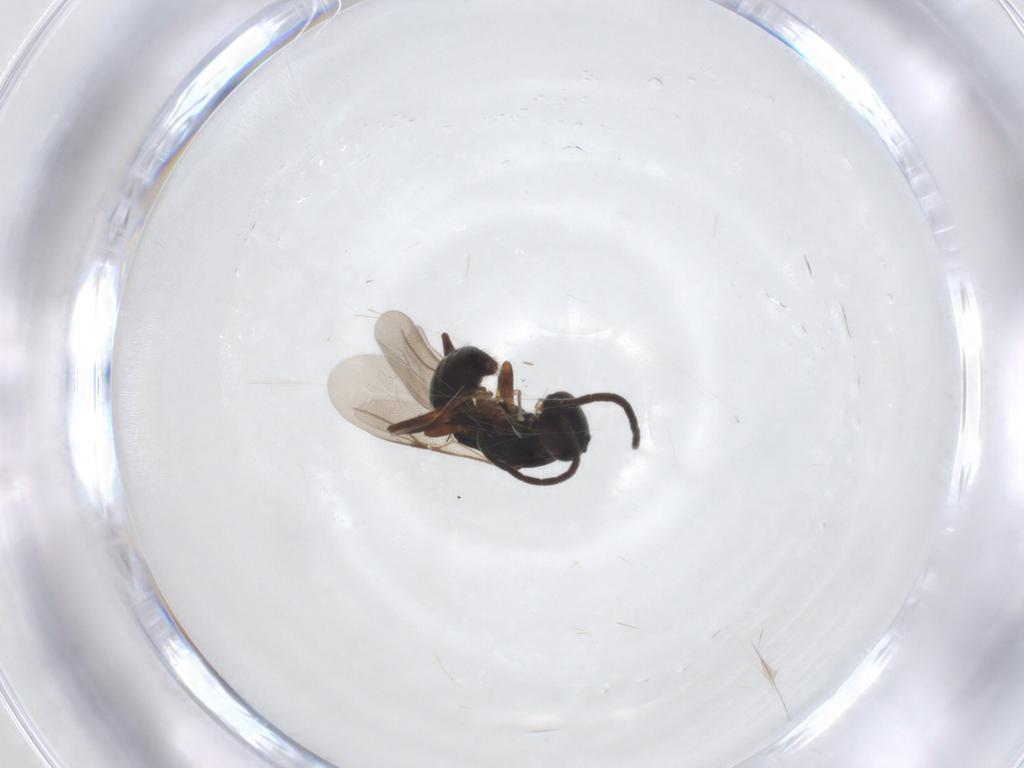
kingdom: Animalia
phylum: Arthropoda
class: Insecta
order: Hymenoptera
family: Bethylidae
